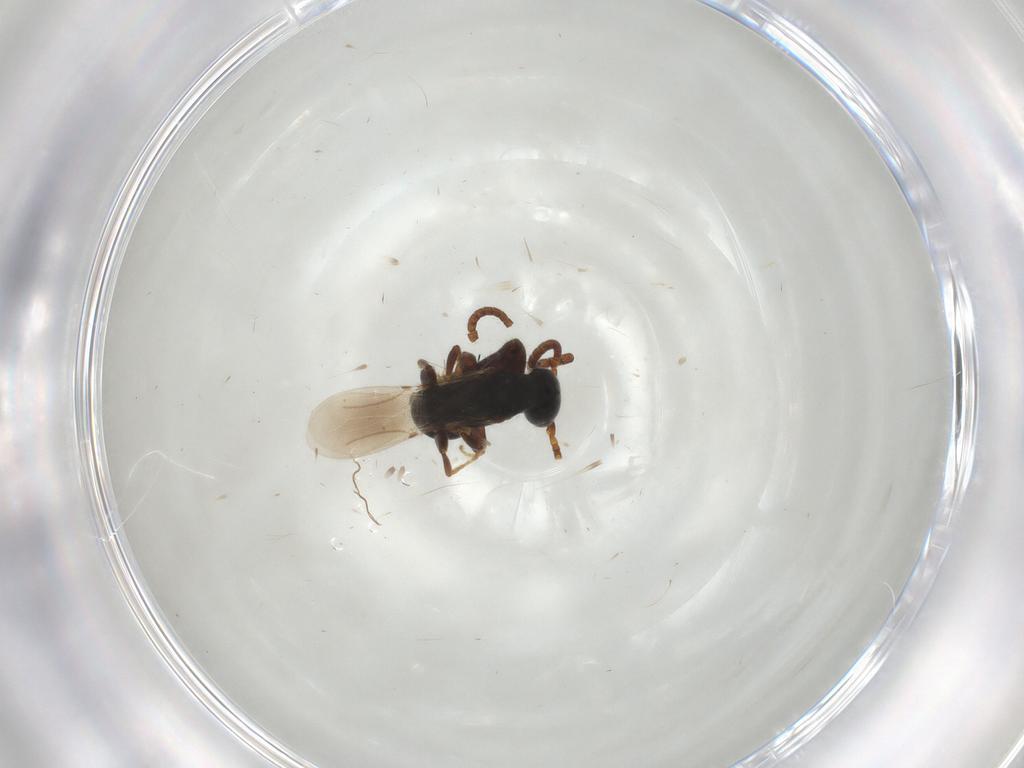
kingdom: Animalia
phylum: Arthropoda
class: Insecta
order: Hymenoptera
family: Bethylidae
